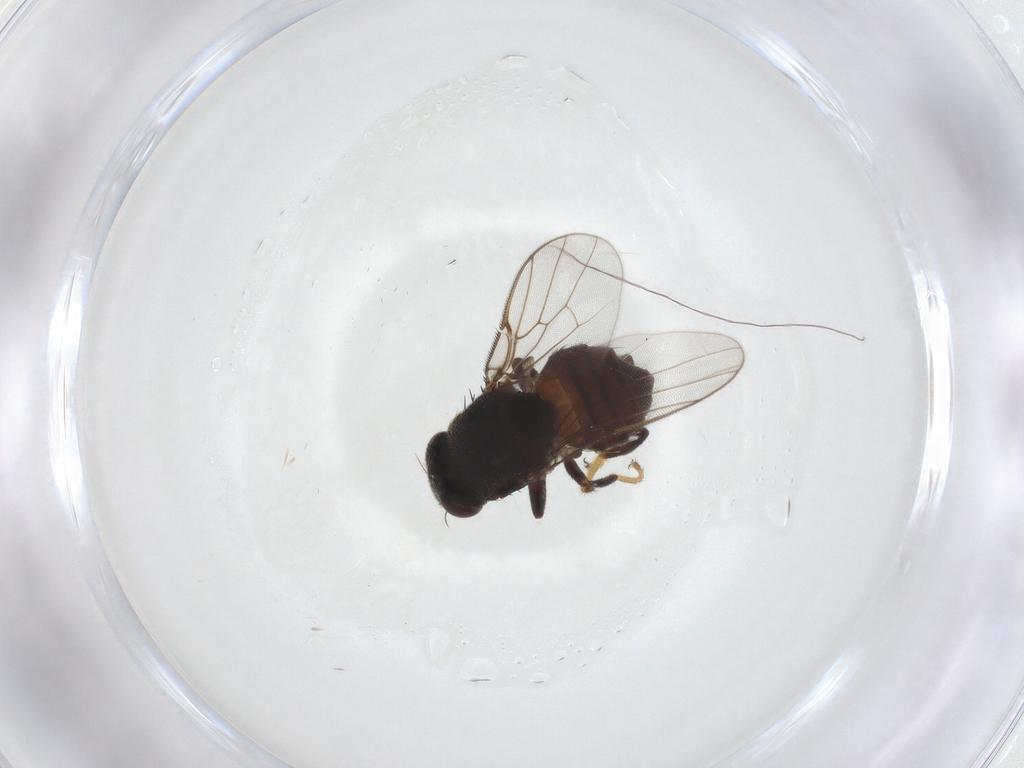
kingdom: Animalia
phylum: Arthropoda
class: Insecta
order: Diptera
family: Chloropidae
